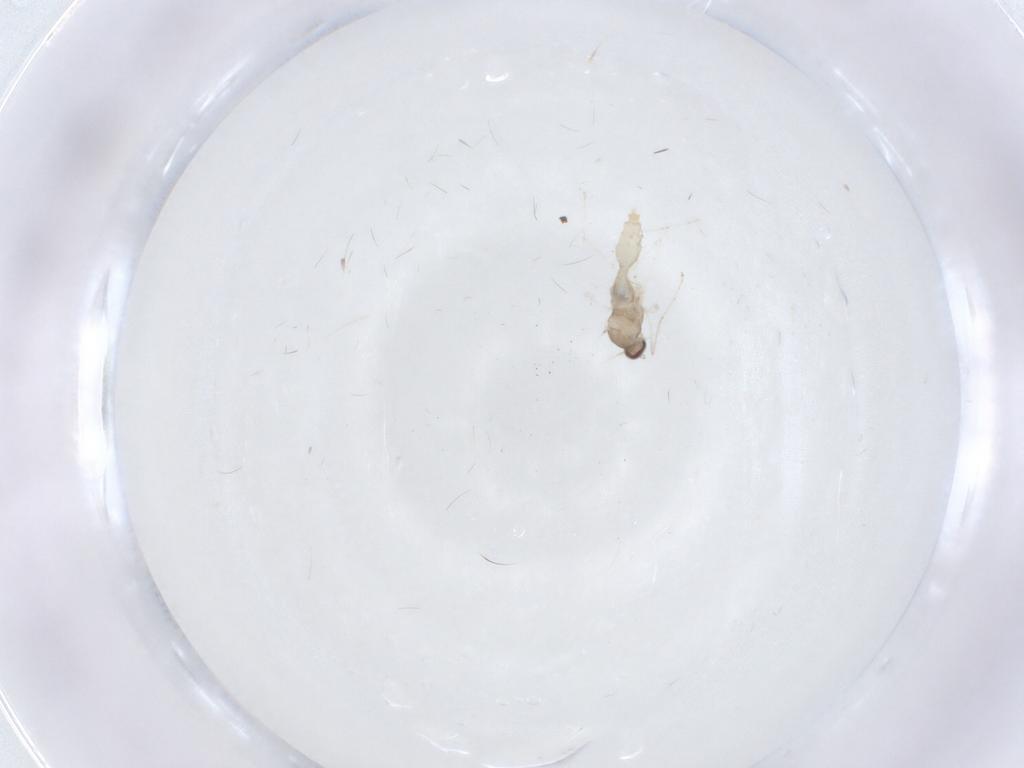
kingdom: Animalia
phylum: Arthropoda
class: Insecta
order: Diptera
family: Cecidomyiidae
